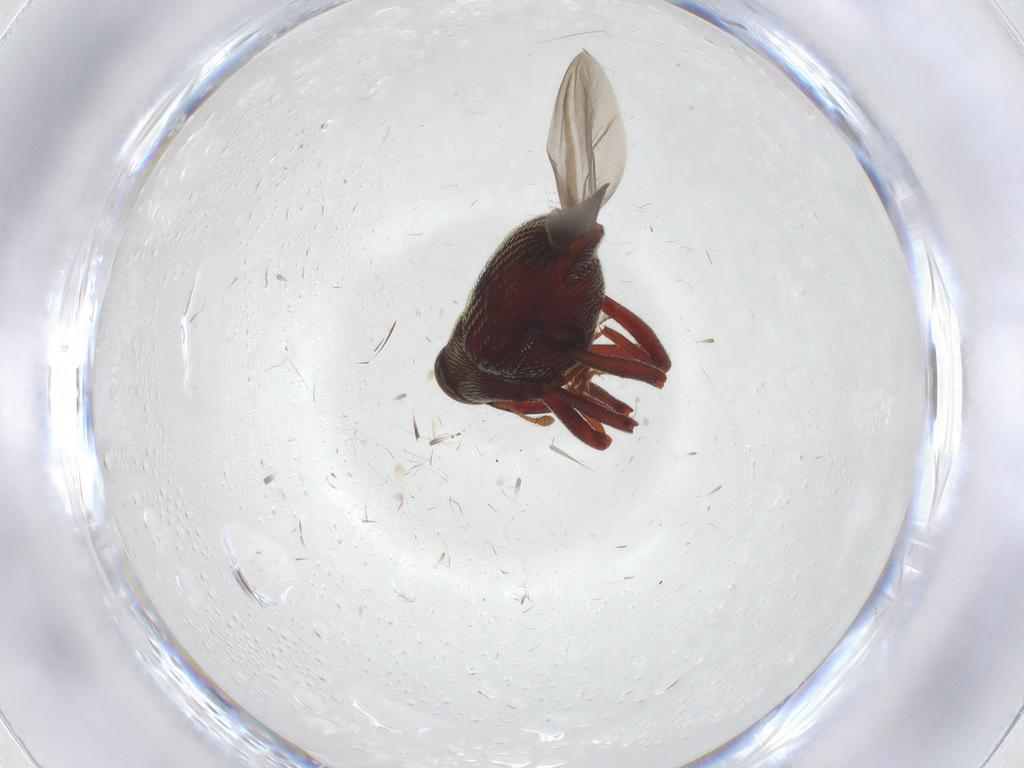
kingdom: Animalia
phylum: Arthropoda
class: Insecta
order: Coleoptera
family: Curculionidae
